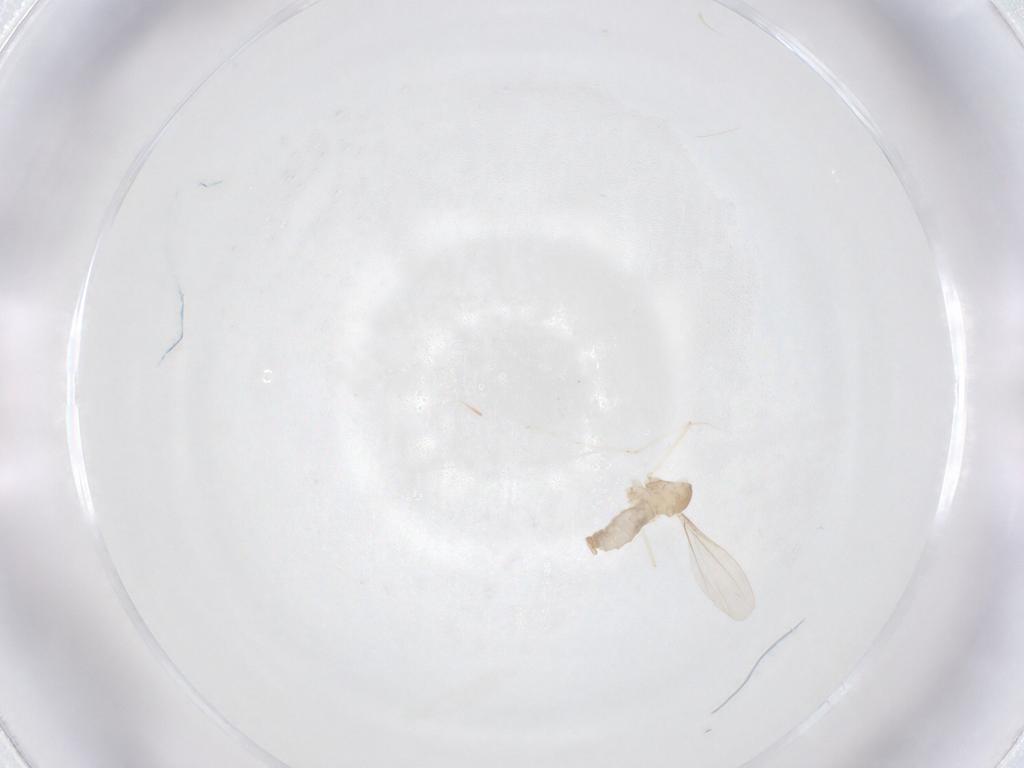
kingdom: Animalia
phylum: Arthropoda
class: Insecta
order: Diptera
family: Cecidomyiidae
